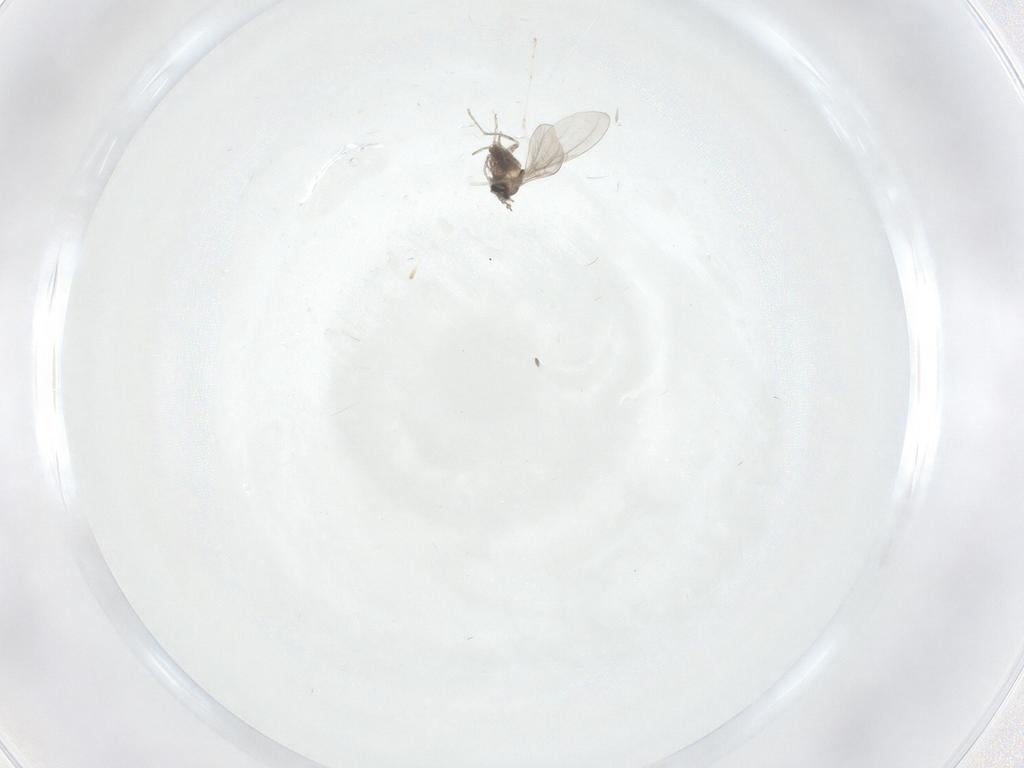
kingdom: Animalia
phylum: Arthropoda
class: Insecta
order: Diptera
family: Cecidomyiidae
